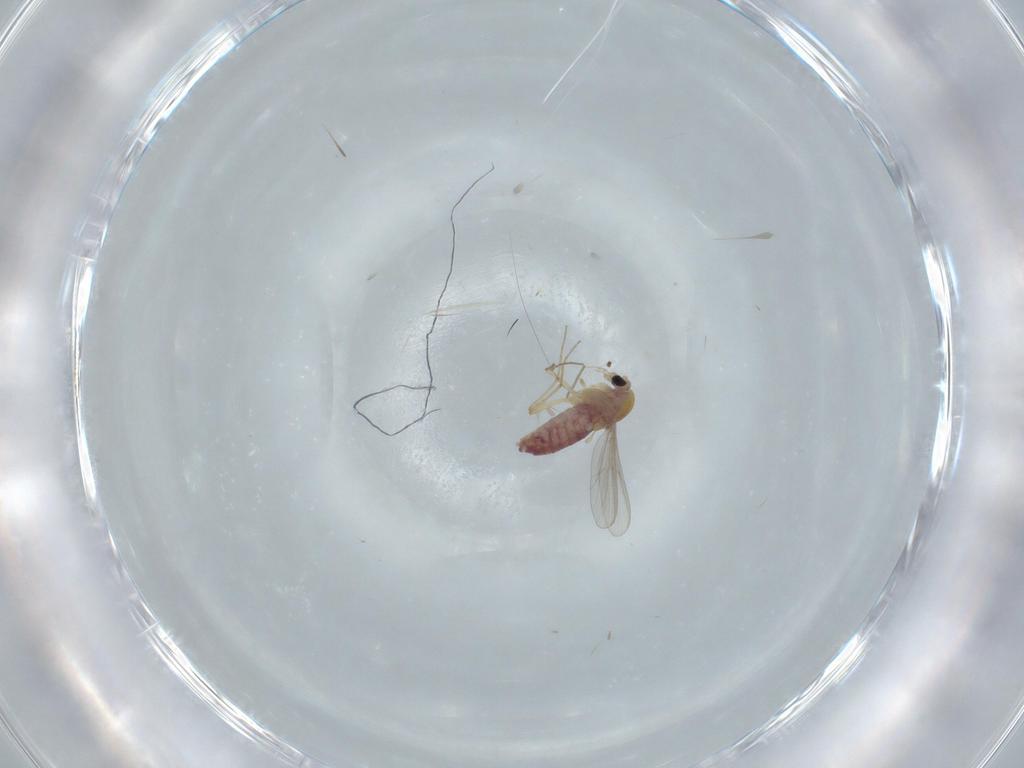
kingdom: Animalia
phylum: Arthropoda
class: Insecta
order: Diptera
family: Chironomidae
